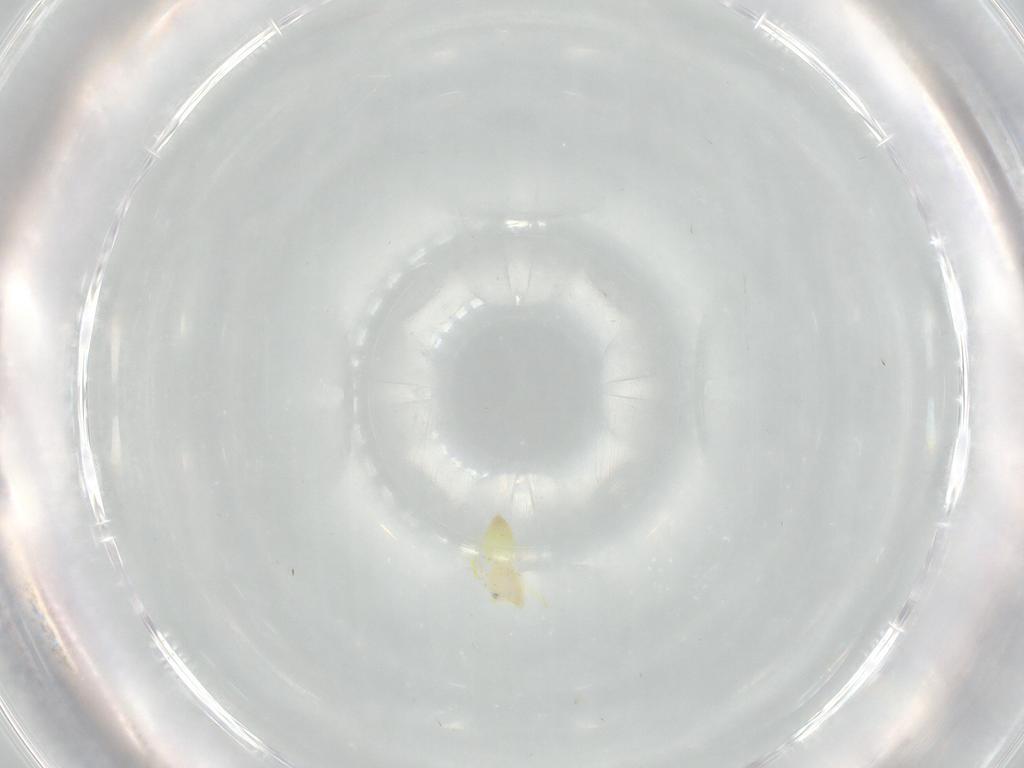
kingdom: Animalia
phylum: Arthropoda
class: Insecta
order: Hemiptera
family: Aleyrodidae
